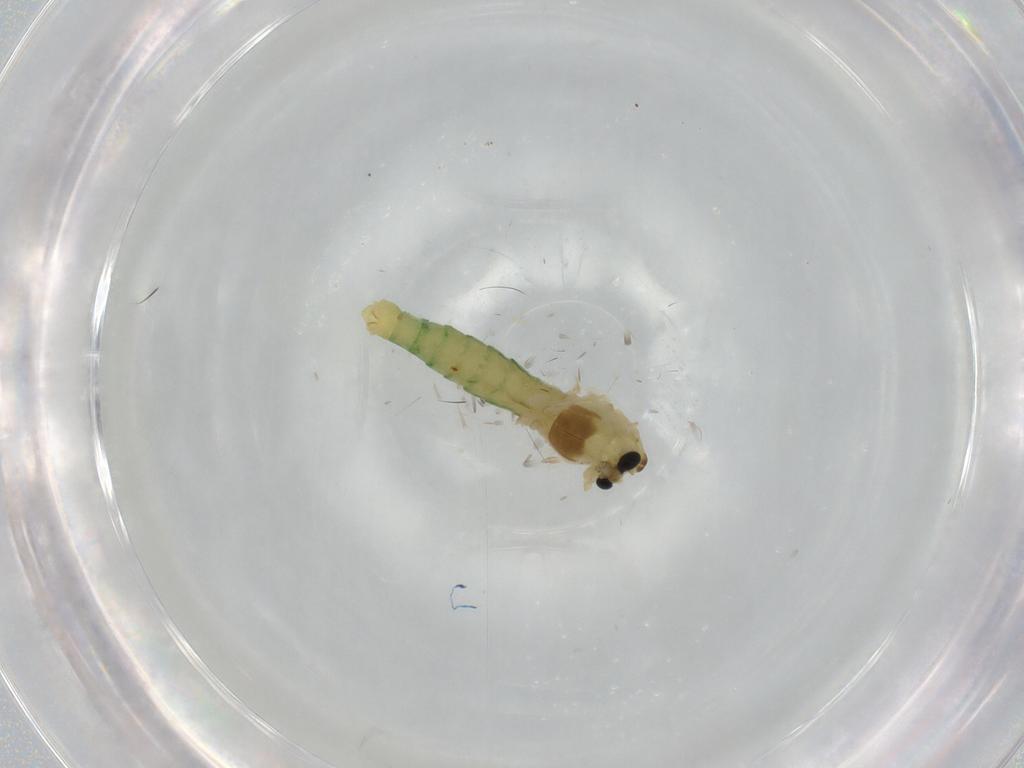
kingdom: Animalia
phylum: Arthropoda
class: Insecta
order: Diptera
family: Chironomidae
